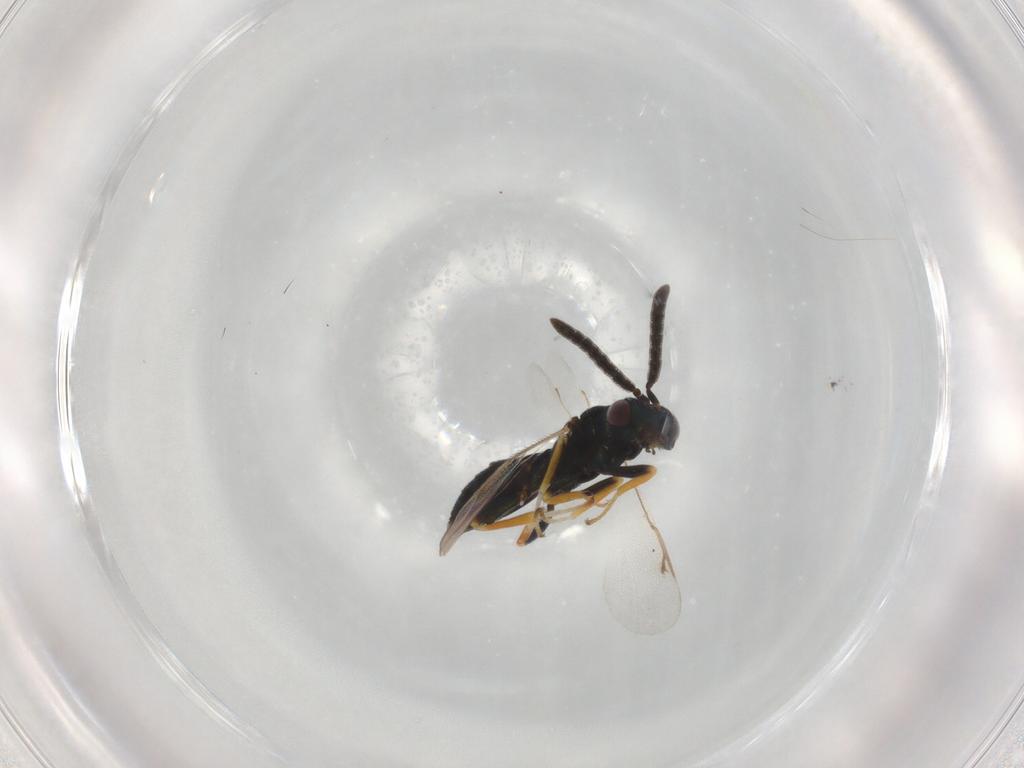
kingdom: Animalia
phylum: Arthropoda
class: Insecta
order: Hymenoptera
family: Torymidae
